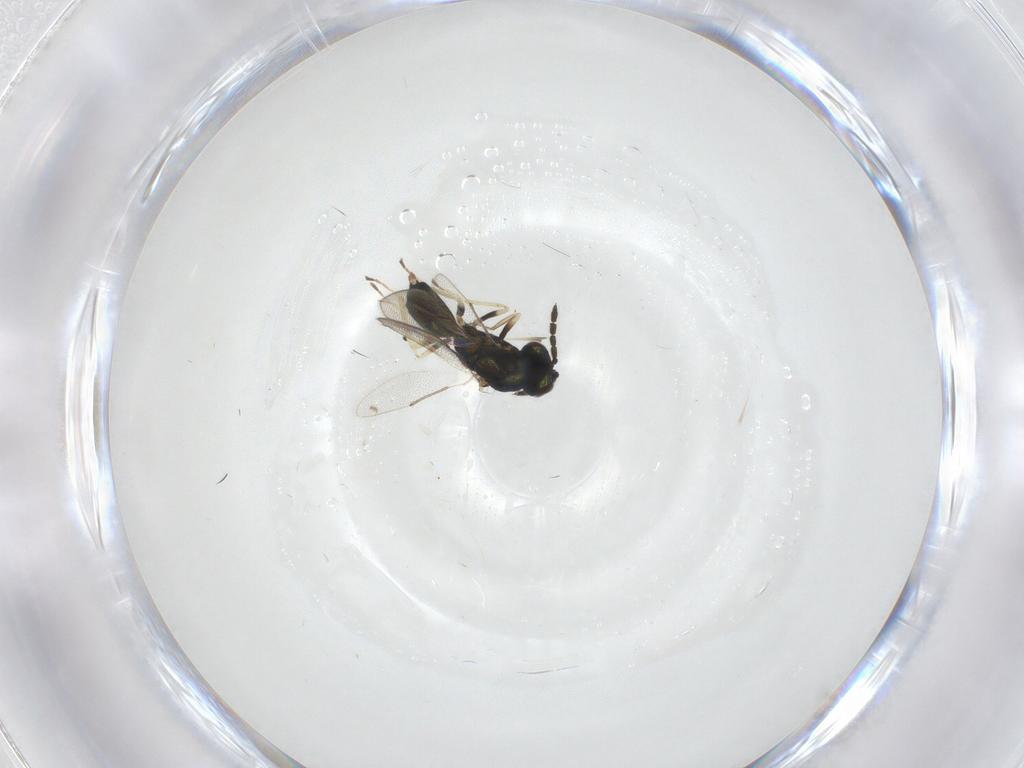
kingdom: Animalia
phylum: Arthropoda
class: Insecta
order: Hymenoptera
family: Eulophidae
